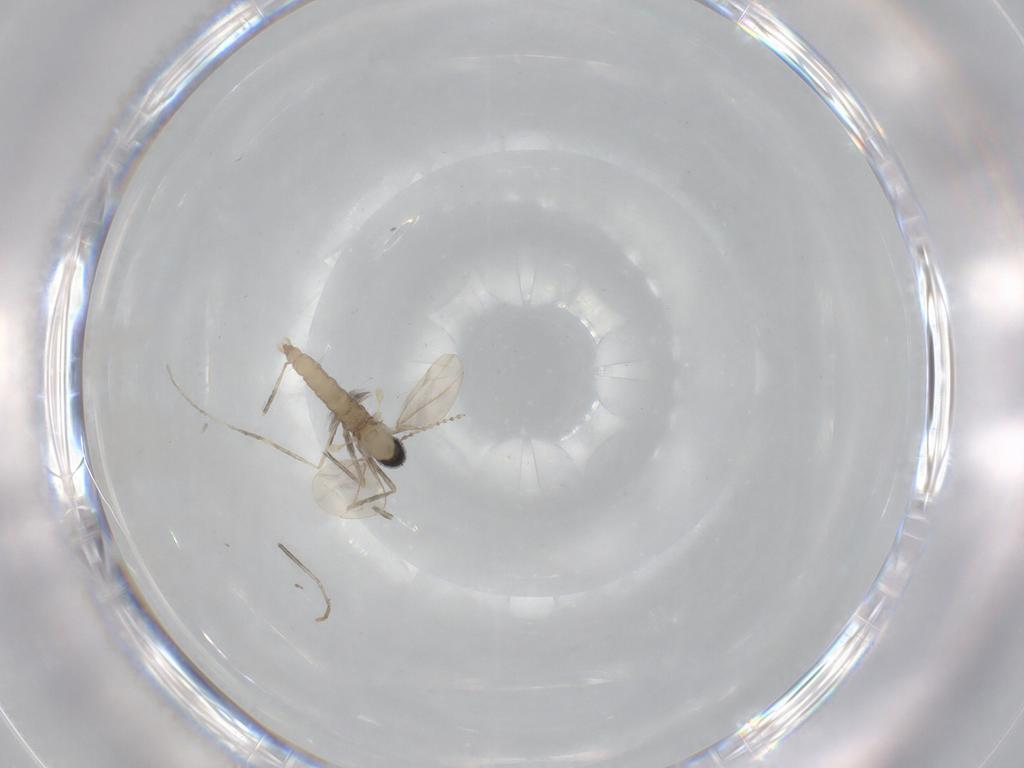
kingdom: Animalia
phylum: Arthropoda
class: Insecta
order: Diptera
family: Cecidomyiidae
